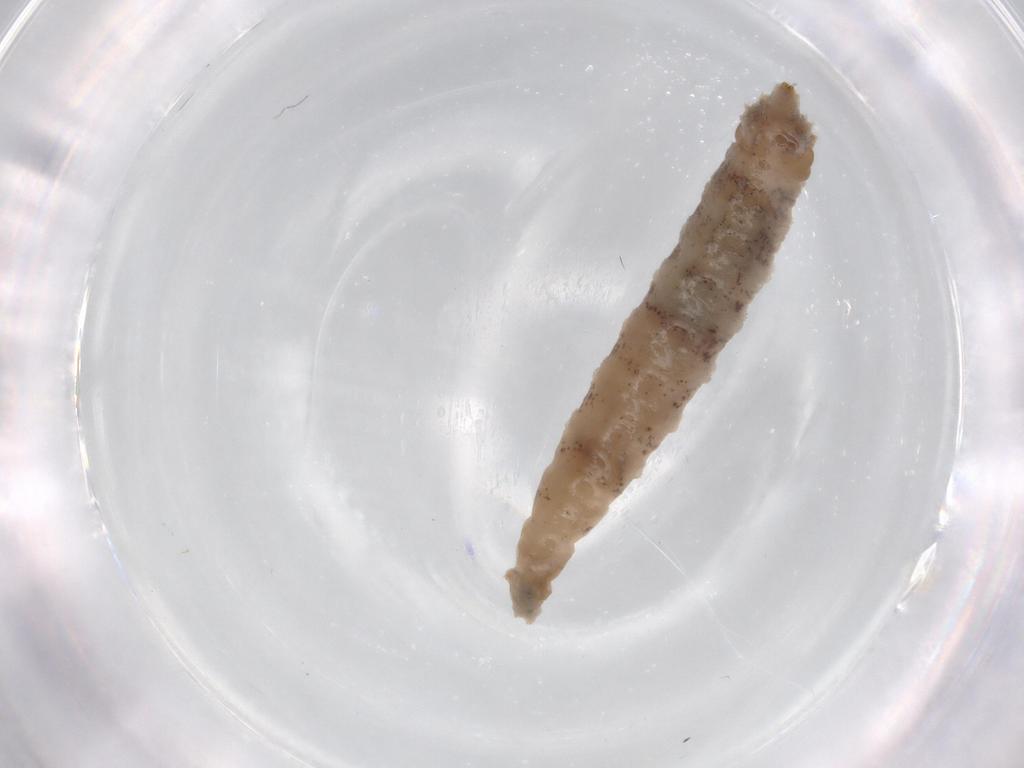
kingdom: Animalia
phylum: Arthropoda
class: Insecta
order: Diptera
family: Drosophilidae
